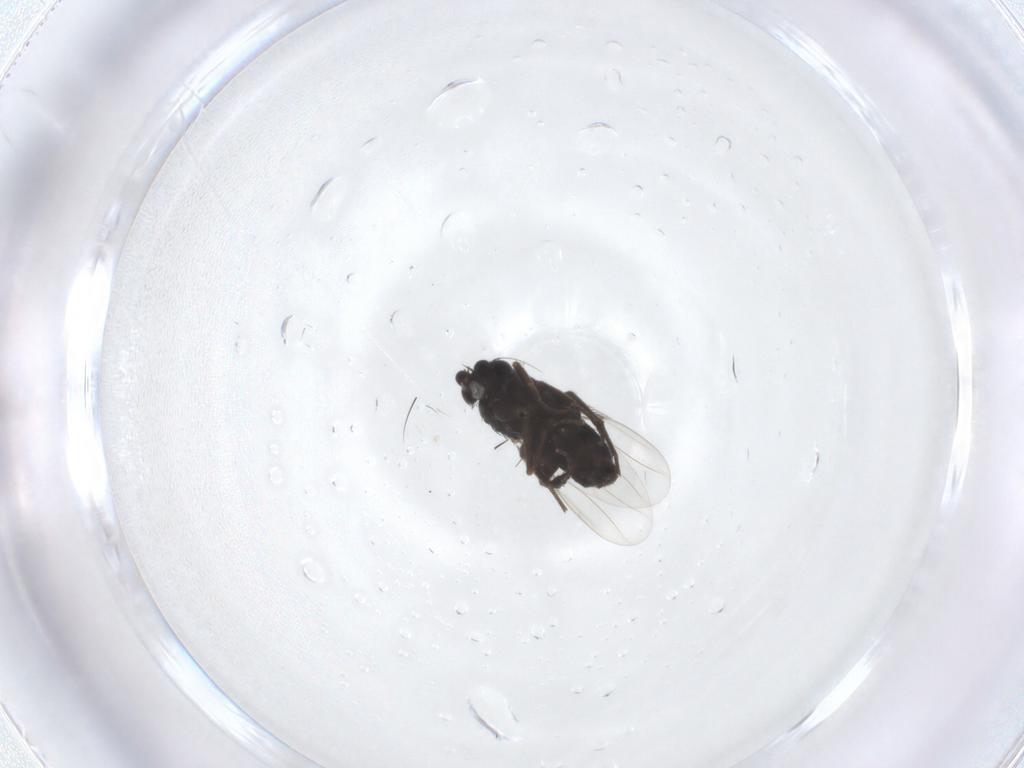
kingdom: Animalia
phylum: Arthropoda
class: Insecta
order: Diptera
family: Phoridae
